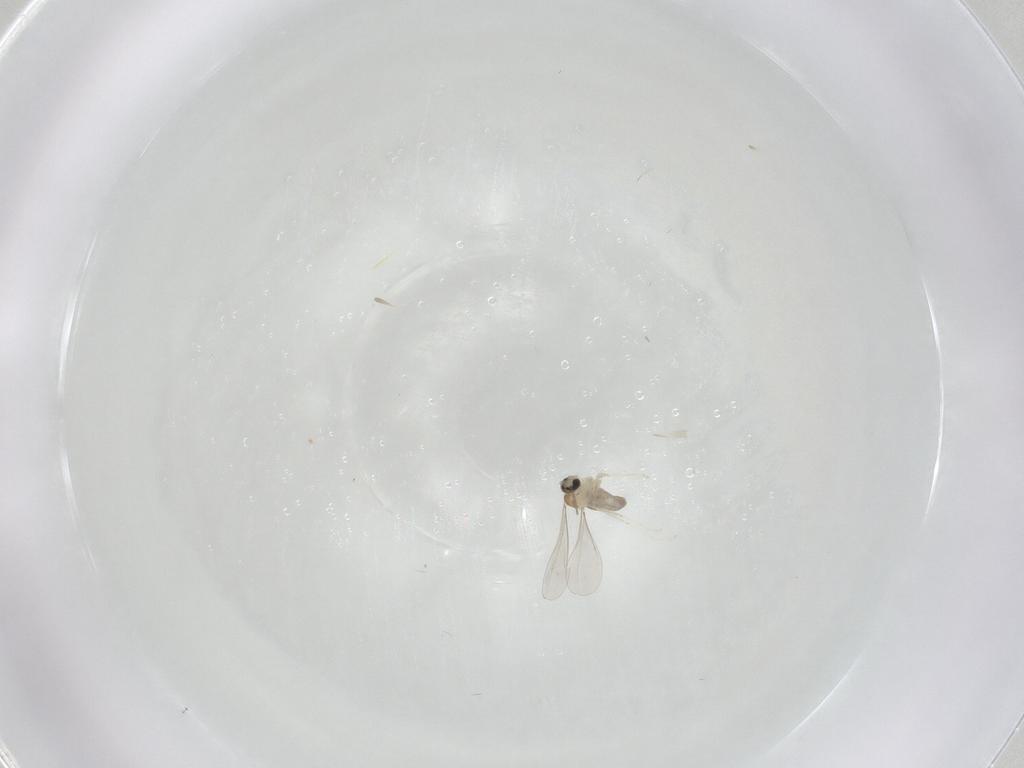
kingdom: Animalia
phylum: Arthropoda
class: Insecta
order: Diptera
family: Cecidomyiidae
